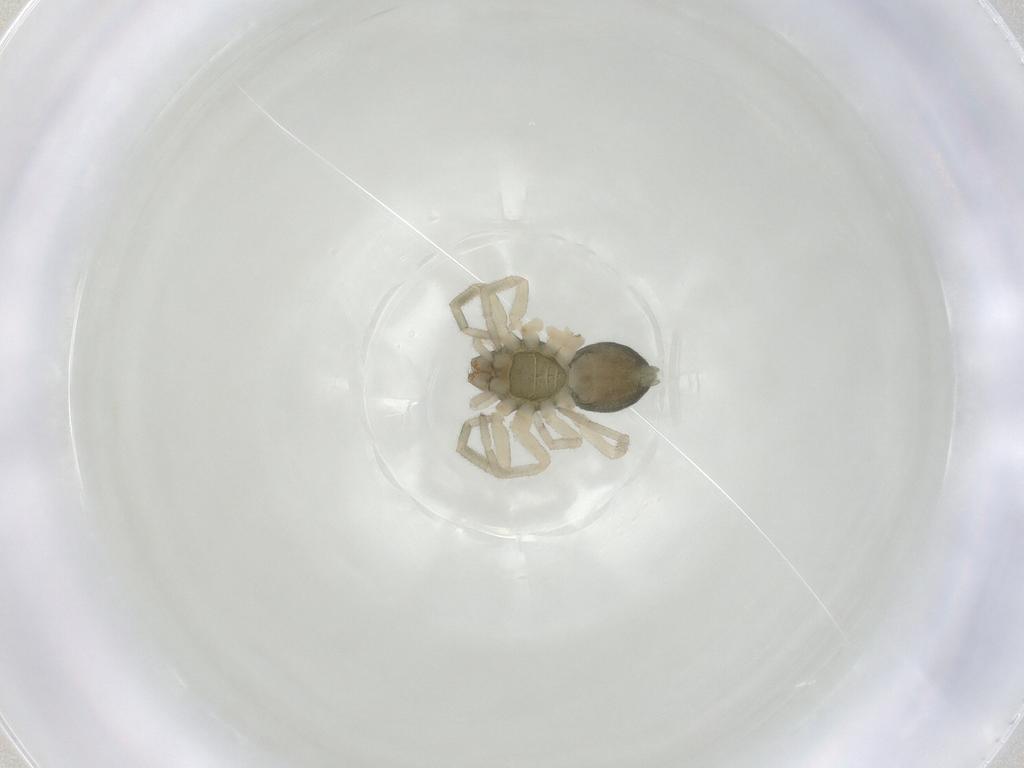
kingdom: Animalia
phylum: Arthropoda
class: Arachnida
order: Araneae
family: Trachelidae
